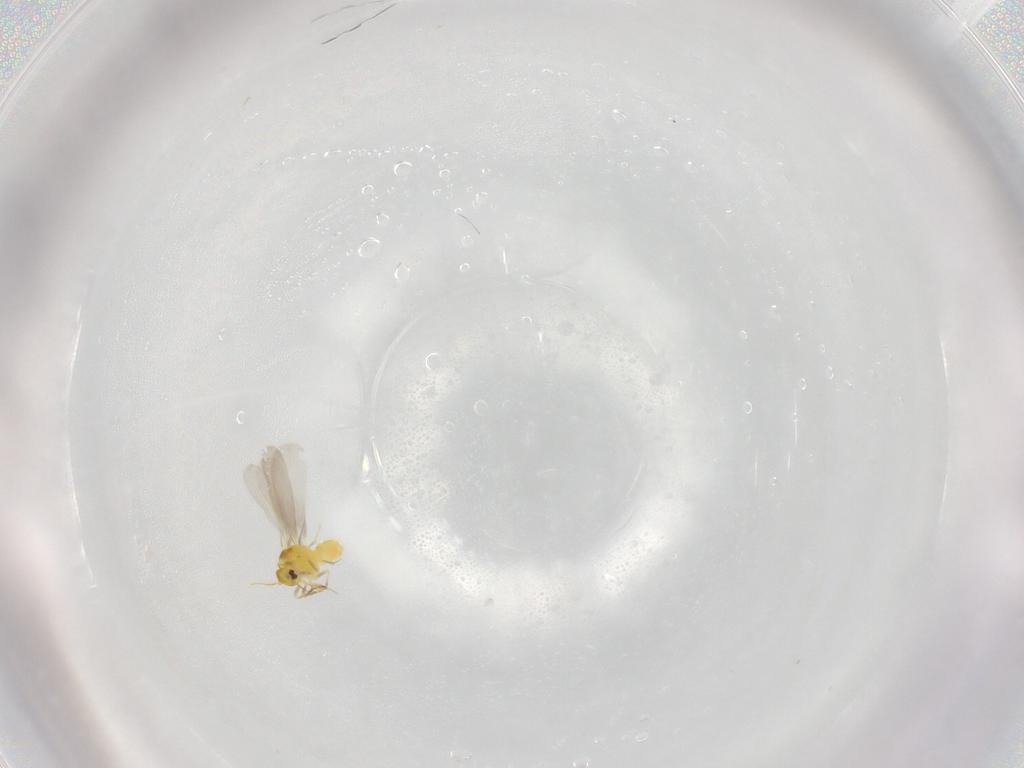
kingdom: Animalia
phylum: Arthropoda
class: Insecta
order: Hemiptera
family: Aleyrodidae
